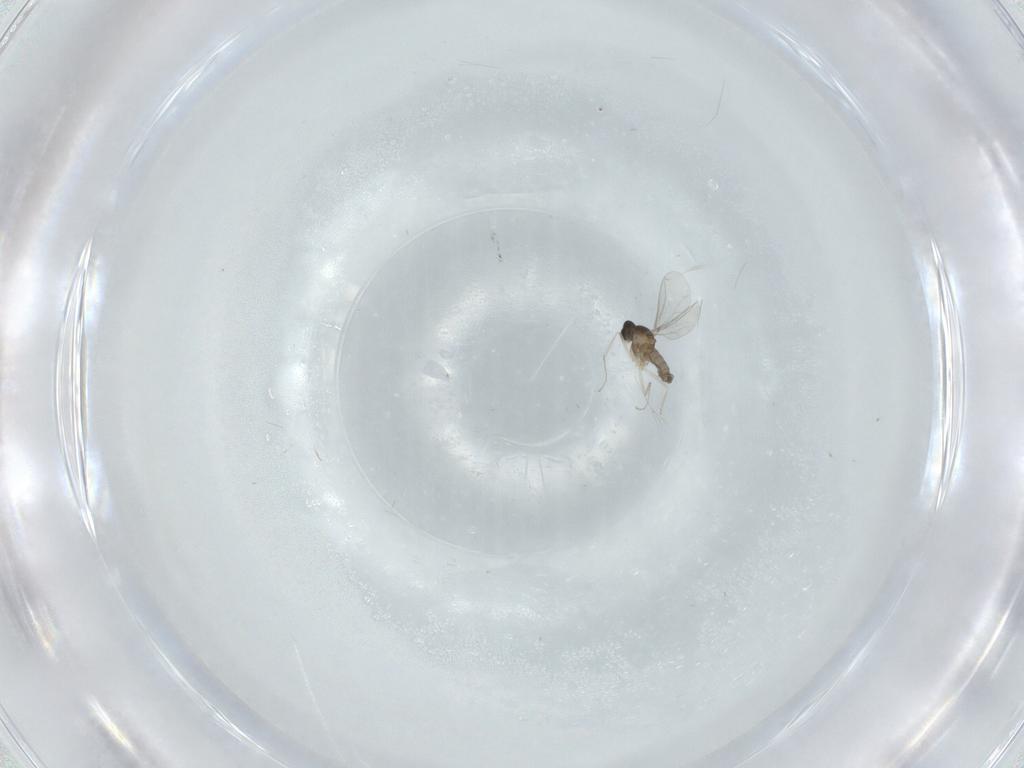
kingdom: Animalia
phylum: Arthropoda
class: Insecta
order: Diptera
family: Cecidomyiidae
